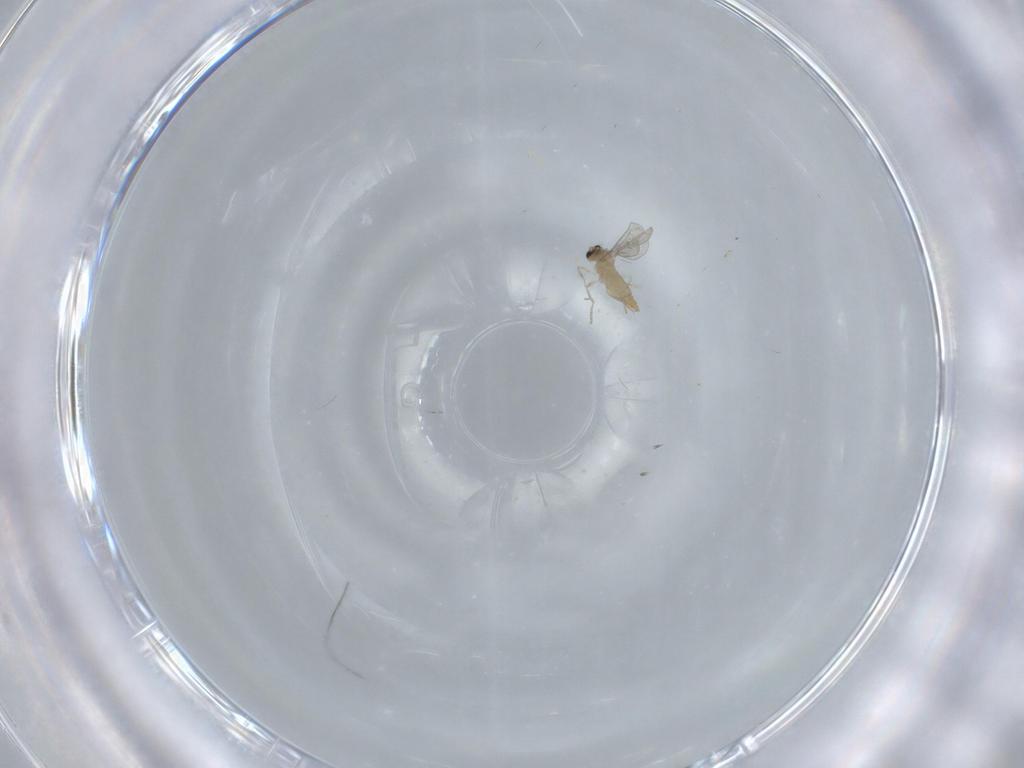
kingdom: Animalia
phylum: Arthropoda
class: Insecta
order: Diptera
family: Cecidomyiidae
